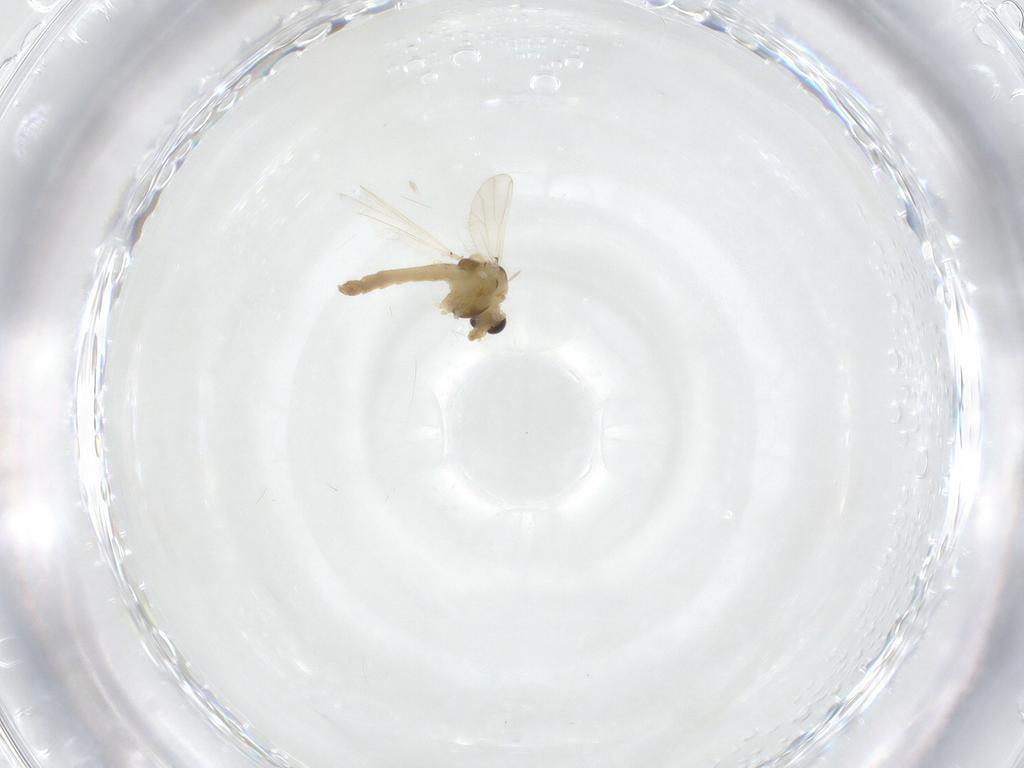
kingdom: Animalia
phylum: Arthropoda
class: Insecta
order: Diptera
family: Chironomidae
